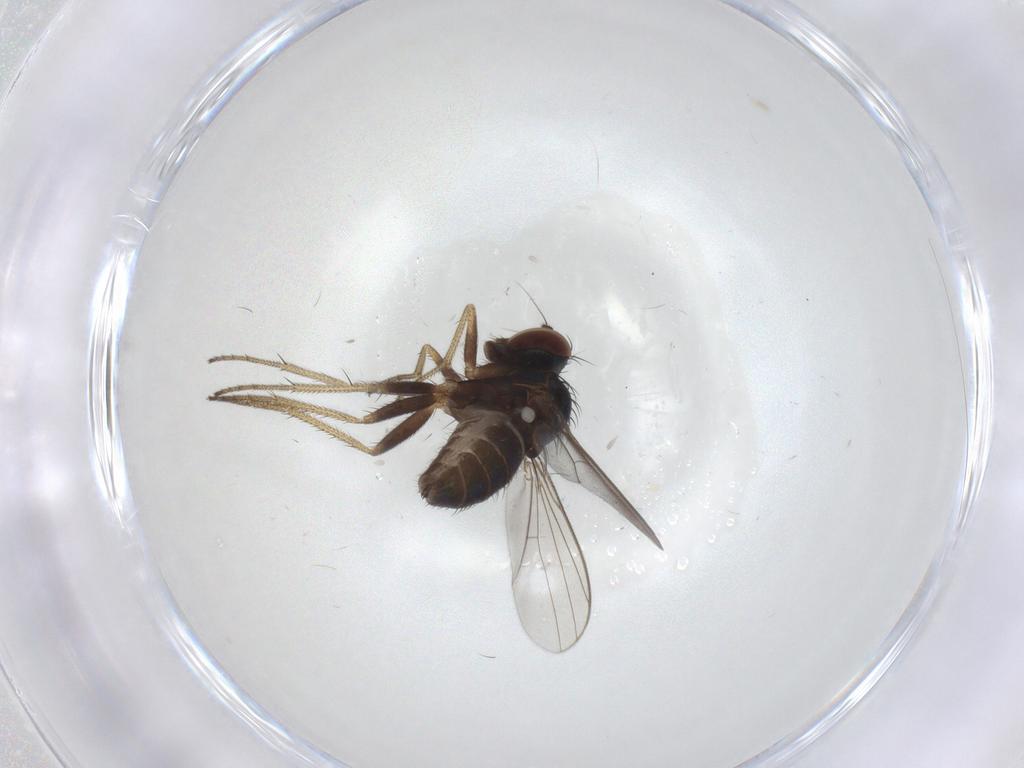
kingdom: Animalia
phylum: Arthropoda
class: Insecta
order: Diptera
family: Dolichopodidae
